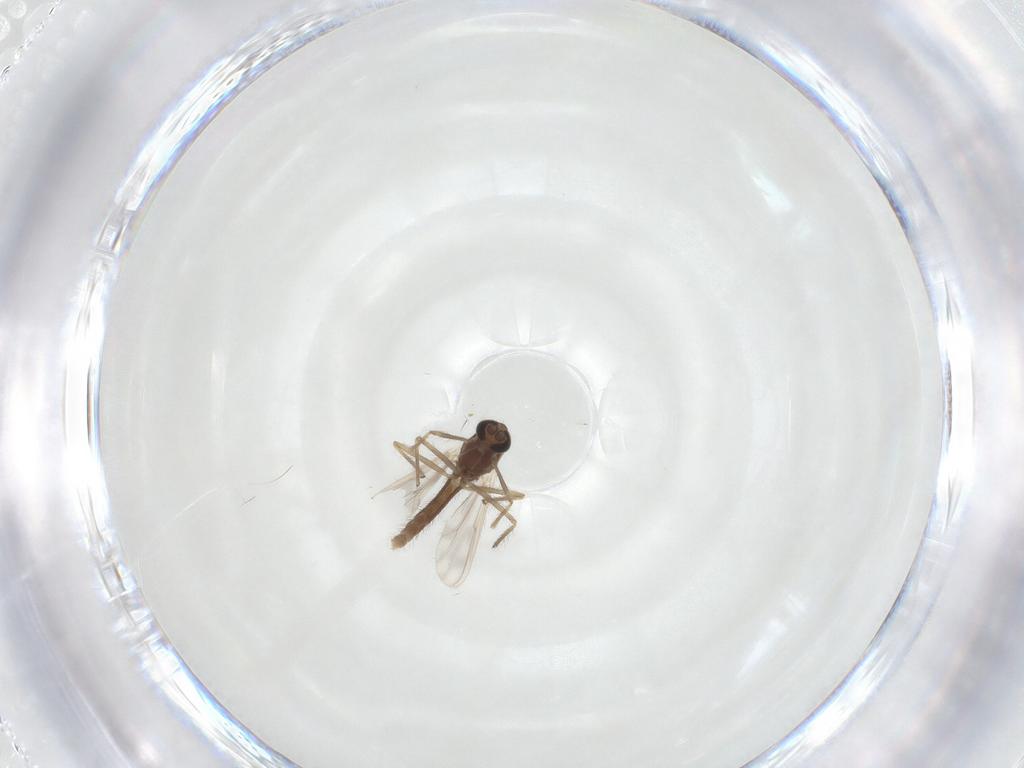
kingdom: Animalia
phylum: Arthropoda
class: Insecta
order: Diptera
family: Chironomidae
